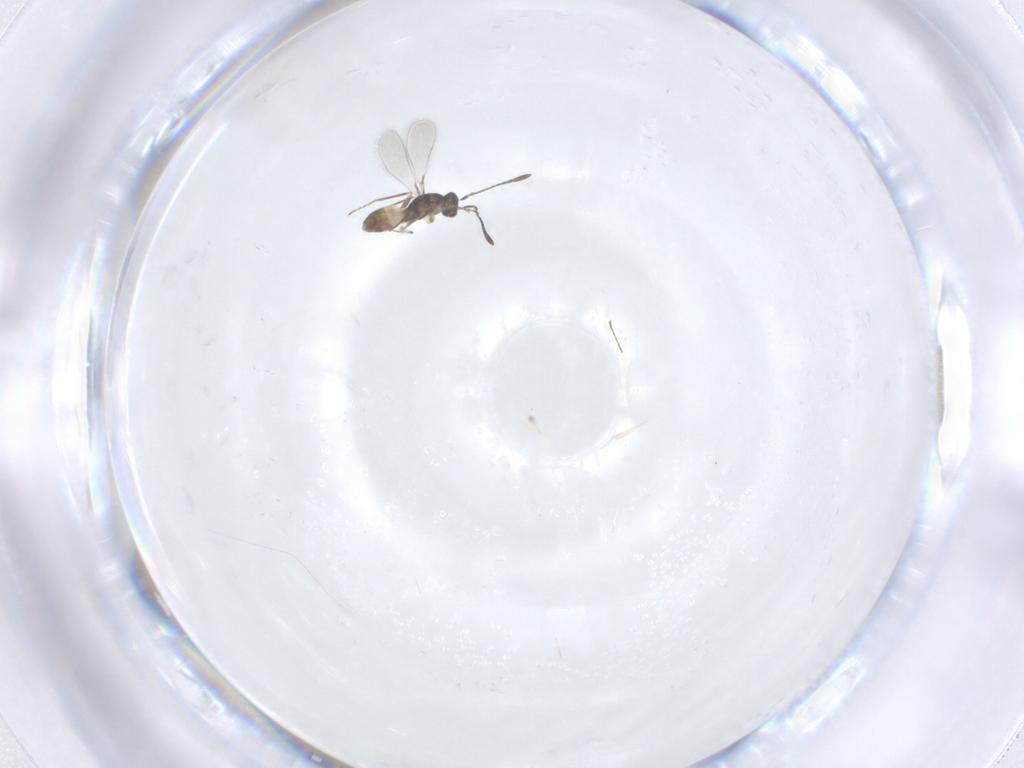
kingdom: Animalia
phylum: Arthropoda
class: Insecta
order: Hymenoptera
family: Mymaridae
